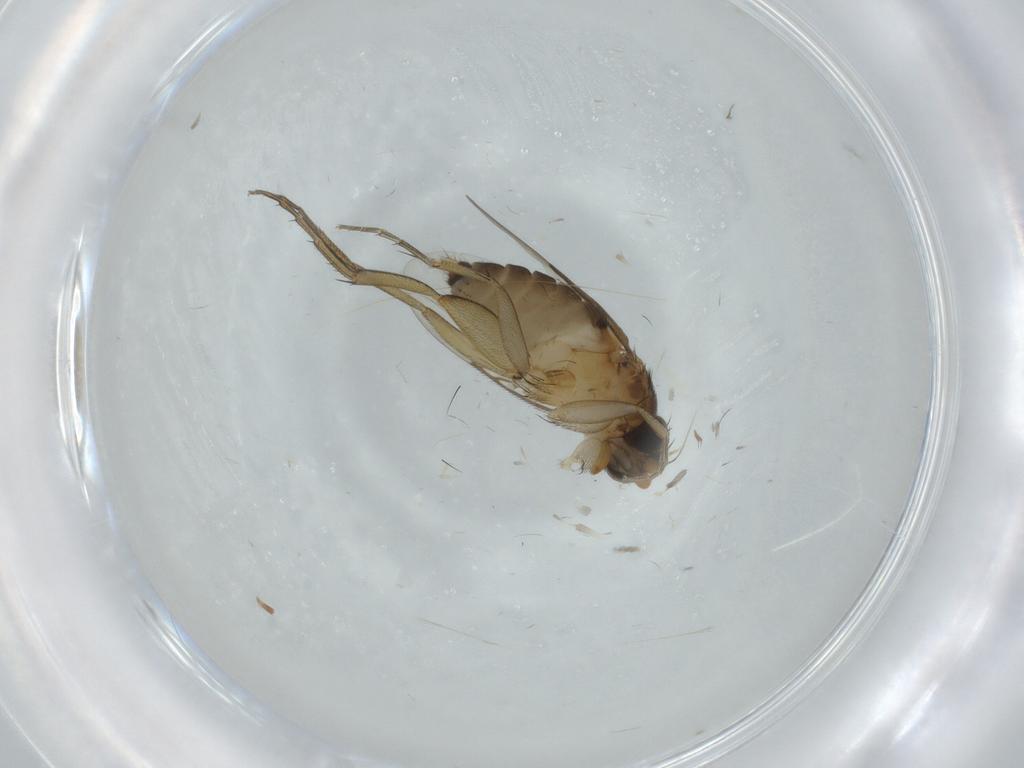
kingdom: Animalia
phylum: Arthropoda
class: Insecta
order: Diptera
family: Phoridae
